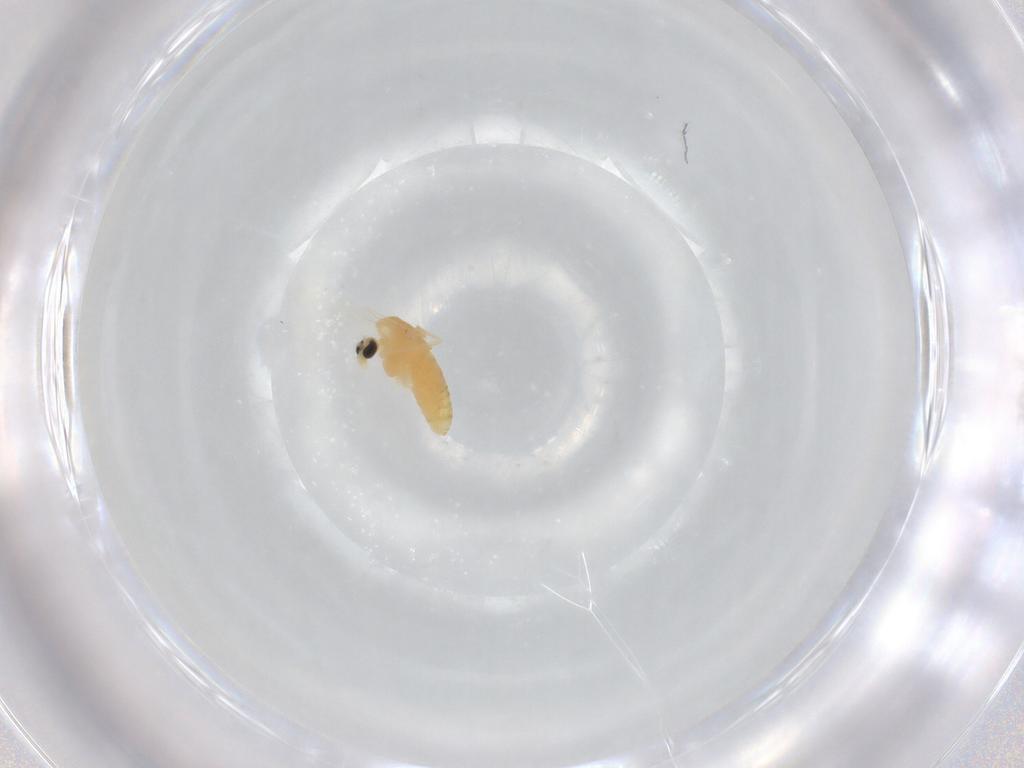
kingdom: Animalia
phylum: Arthropoda
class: Insecta
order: Diptera
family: Chironomidae
